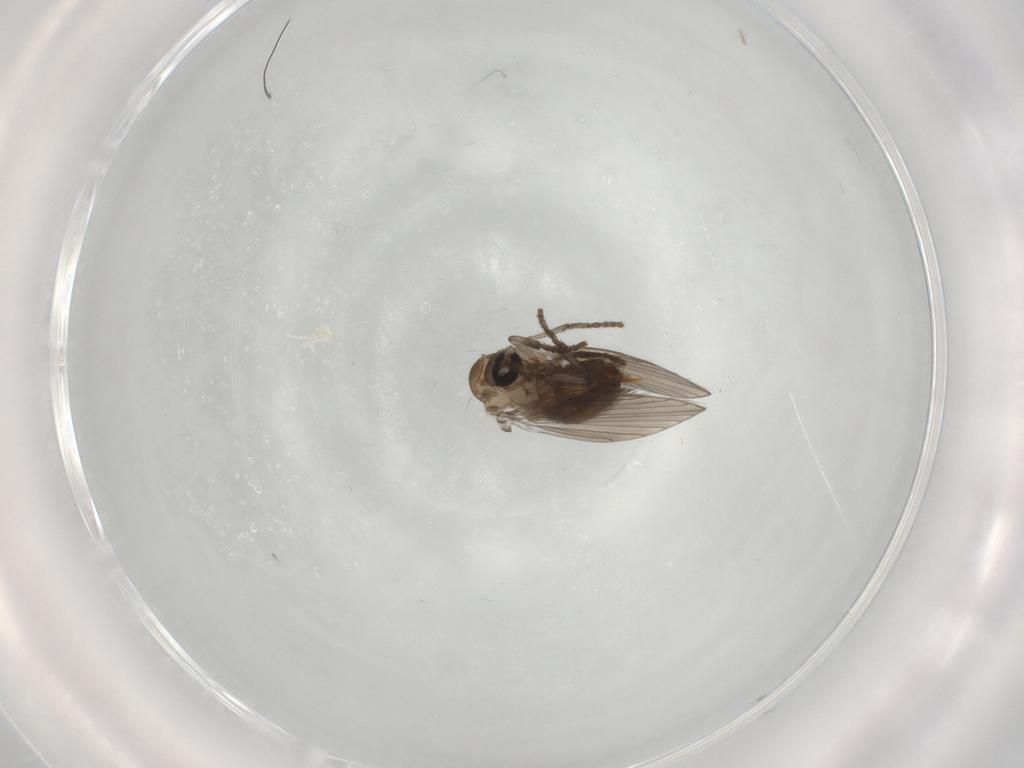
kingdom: Animalia
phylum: Arthropoda
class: Insecta
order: Diptera
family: Psychodidae
